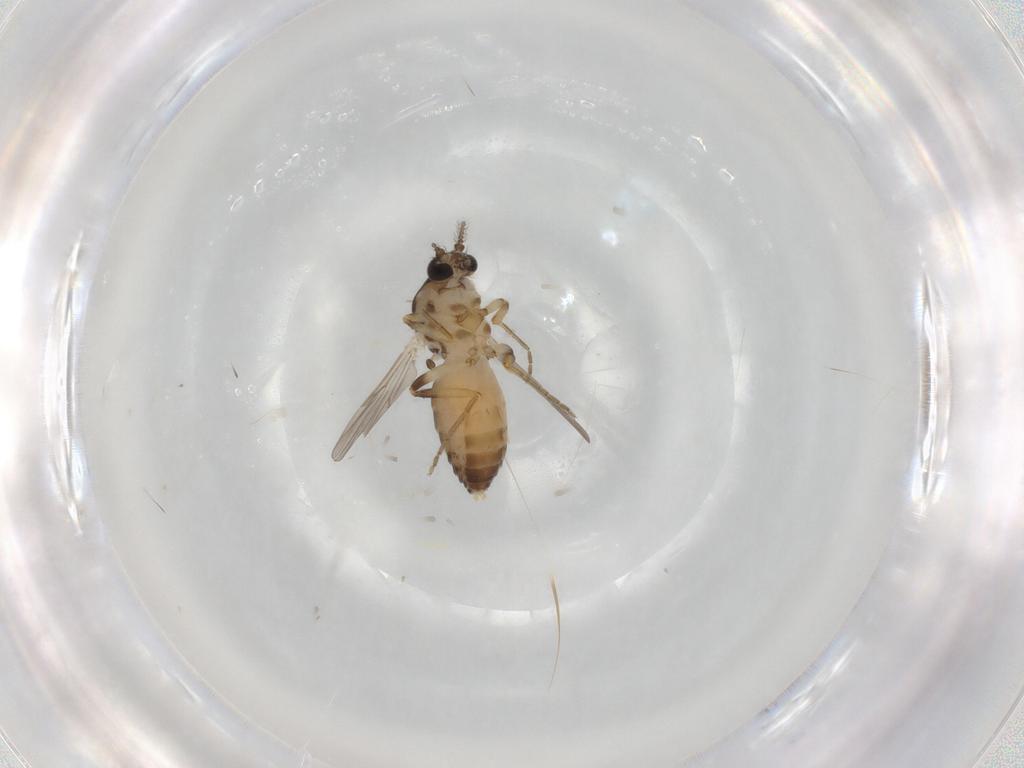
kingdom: Animalia
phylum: Arthropoda
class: Insecta
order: Diptera
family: Ceratopogonidae
